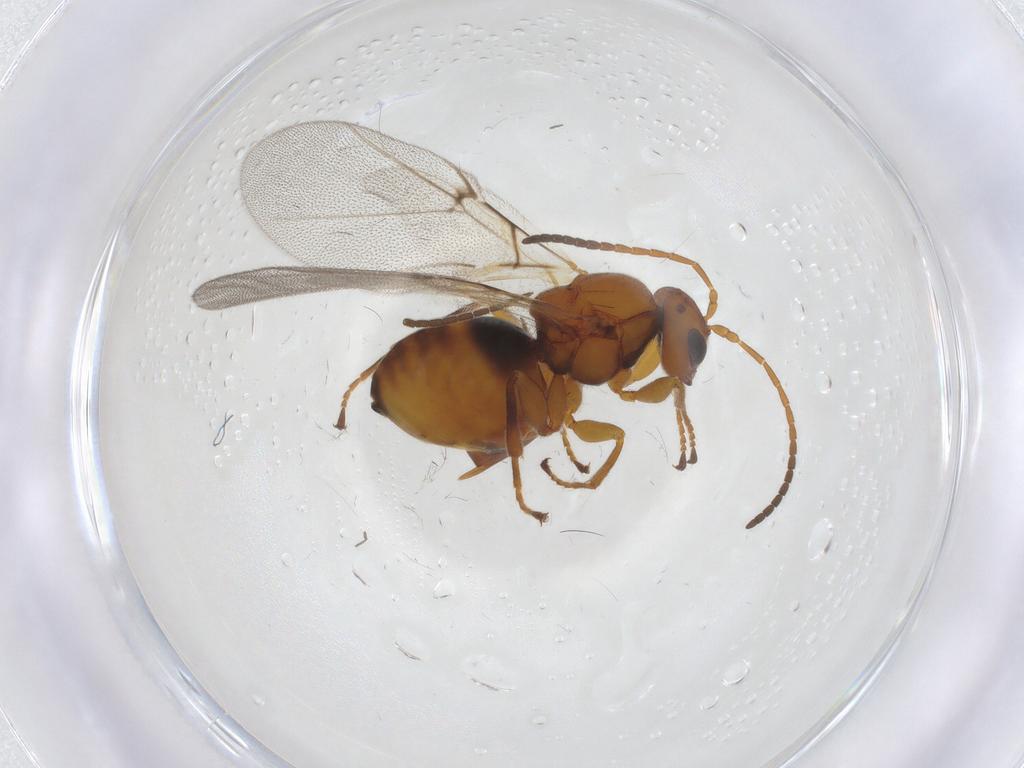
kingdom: Animalia
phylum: Arthropoda
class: Insecta
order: Hymenoptera
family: Cynipidae
